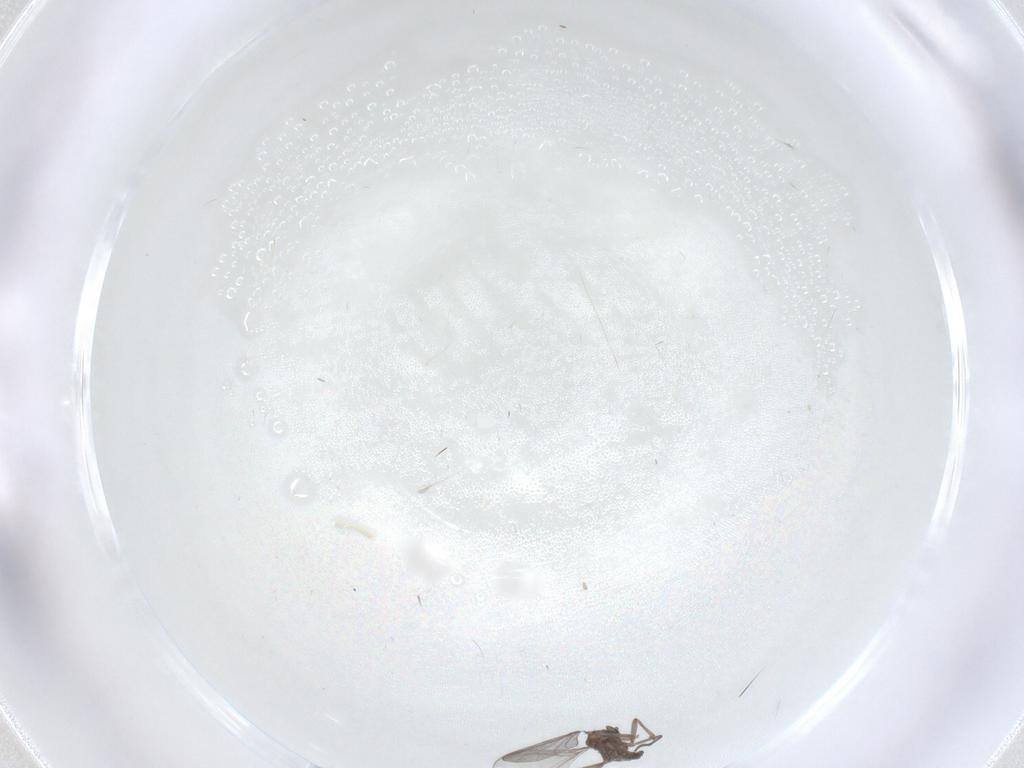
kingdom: Animalia
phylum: Arthropoda
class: Insecta
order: Diptera
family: Sciaridae
